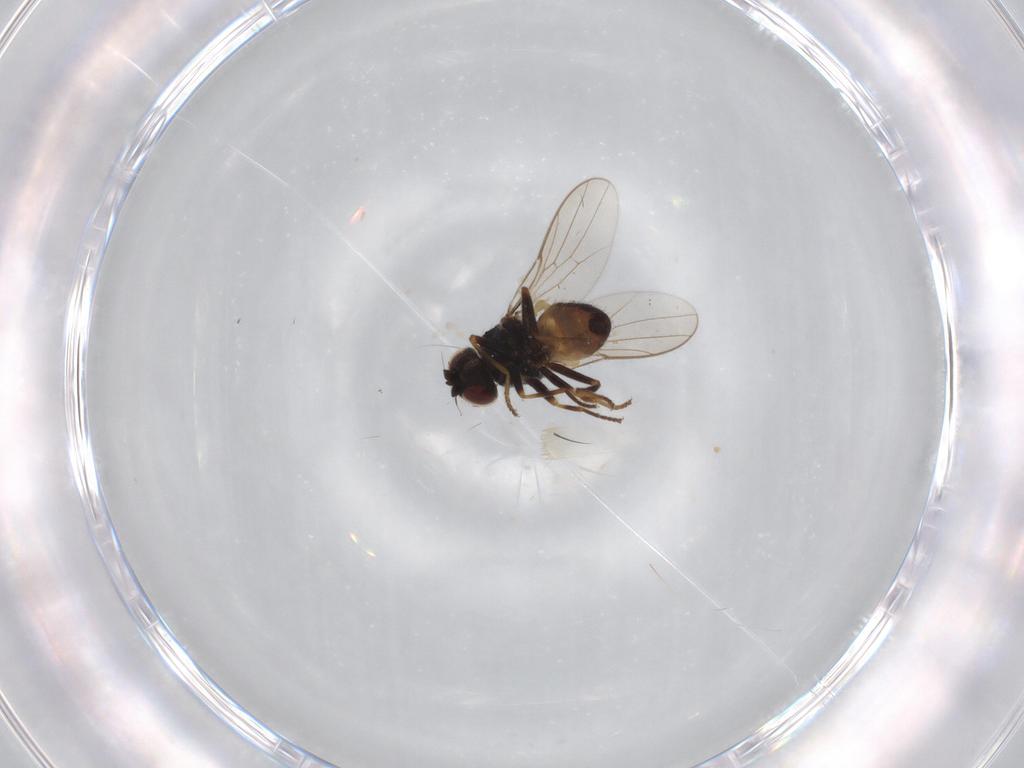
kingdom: Animalia
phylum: Arthropoda
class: Insecta
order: Diptera
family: Chloropidae
